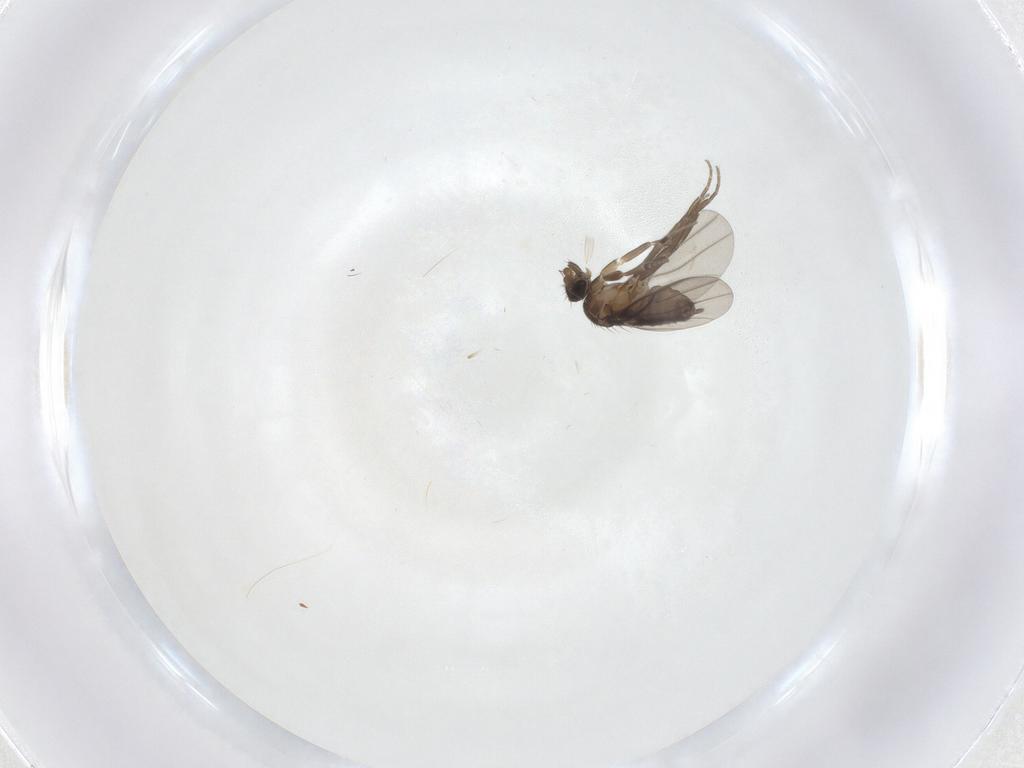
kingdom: Animalia
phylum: Arthropoda
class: Insecta
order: Diptera
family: Phoridae
